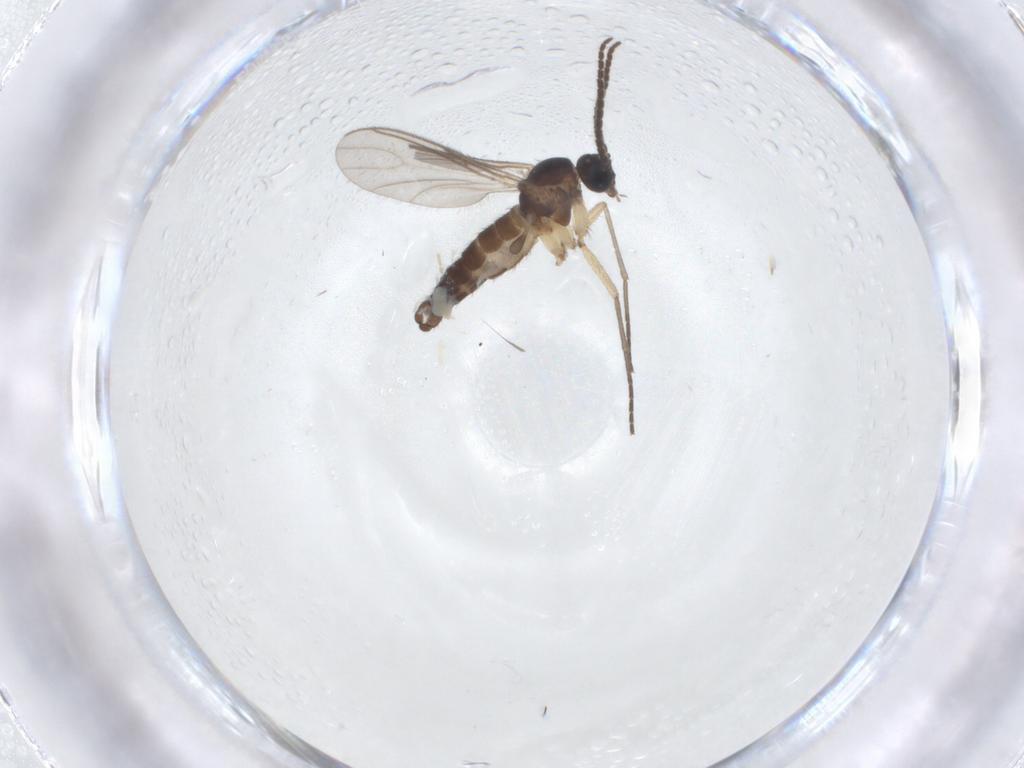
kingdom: Animalia
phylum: Arthropoda
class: Insecta
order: Diptera
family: Sciaridae
